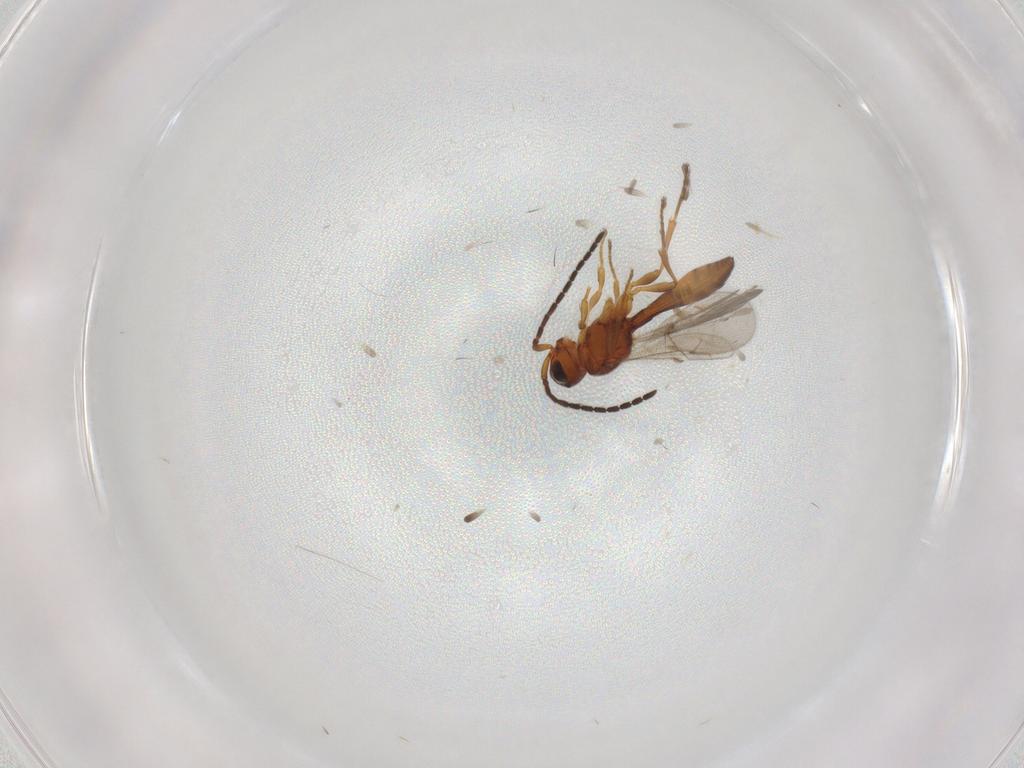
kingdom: Animalia
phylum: Arthropoda
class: Insecta
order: Hymenoptera
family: Scelionidae
